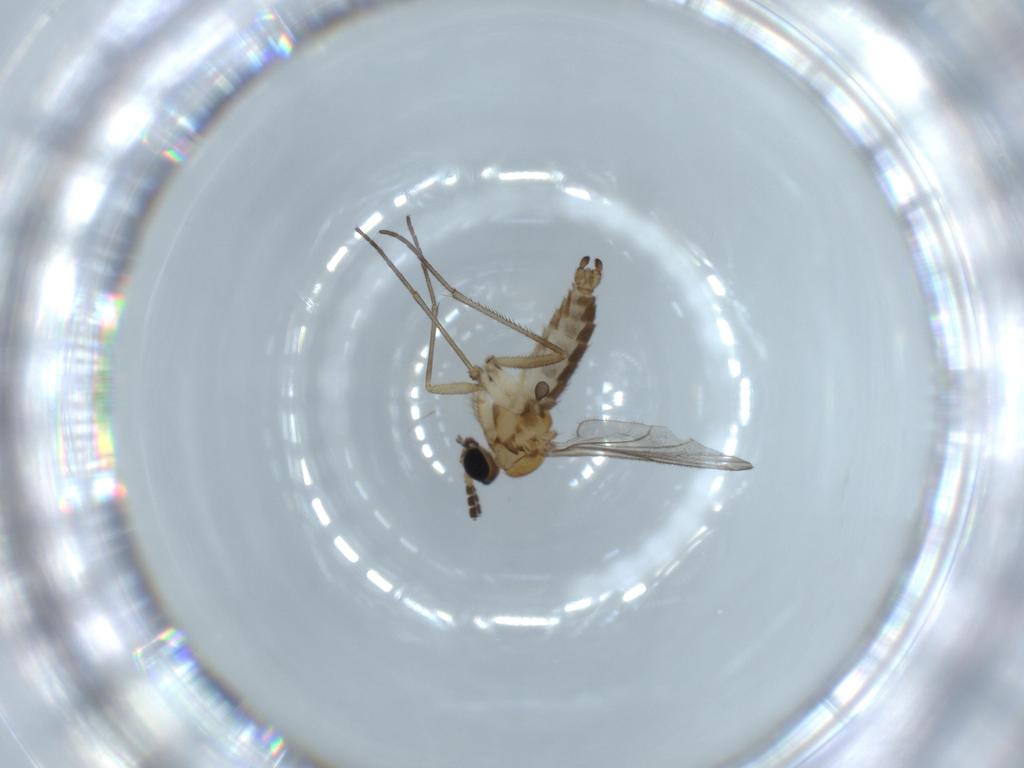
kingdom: Animalia
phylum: Arthropoda
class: Insecta
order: Diptera
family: Sciaridae
